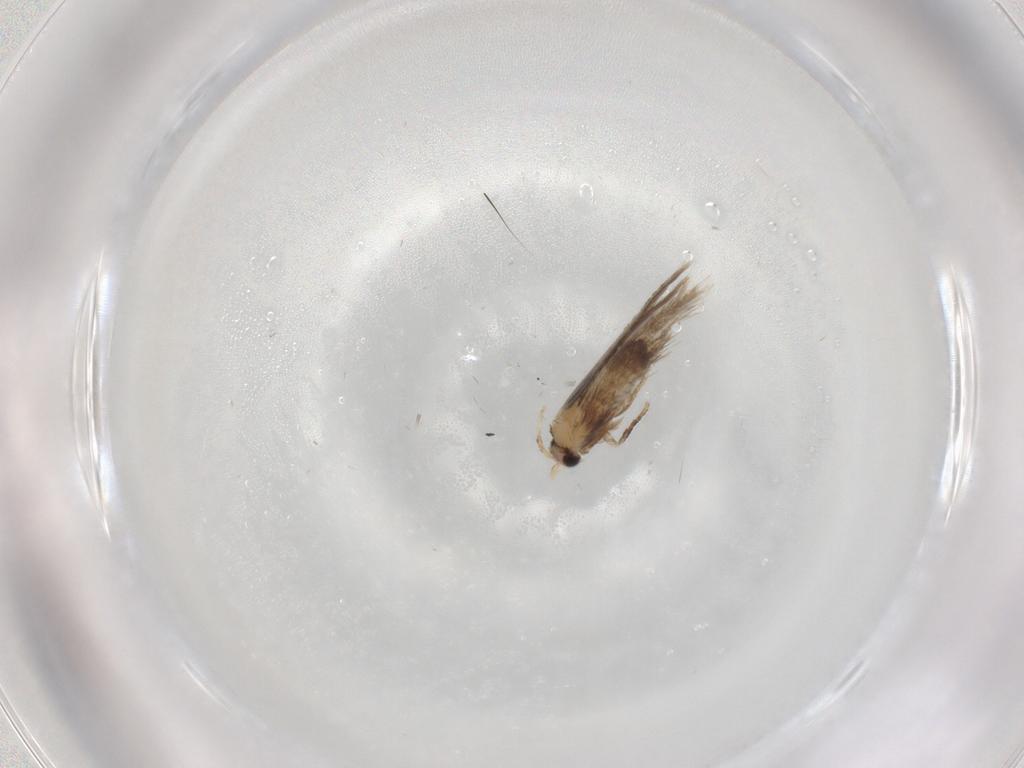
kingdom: Animalia
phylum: Arthropoda
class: Insecta
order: Lepidoptera
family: Nepticulidae
